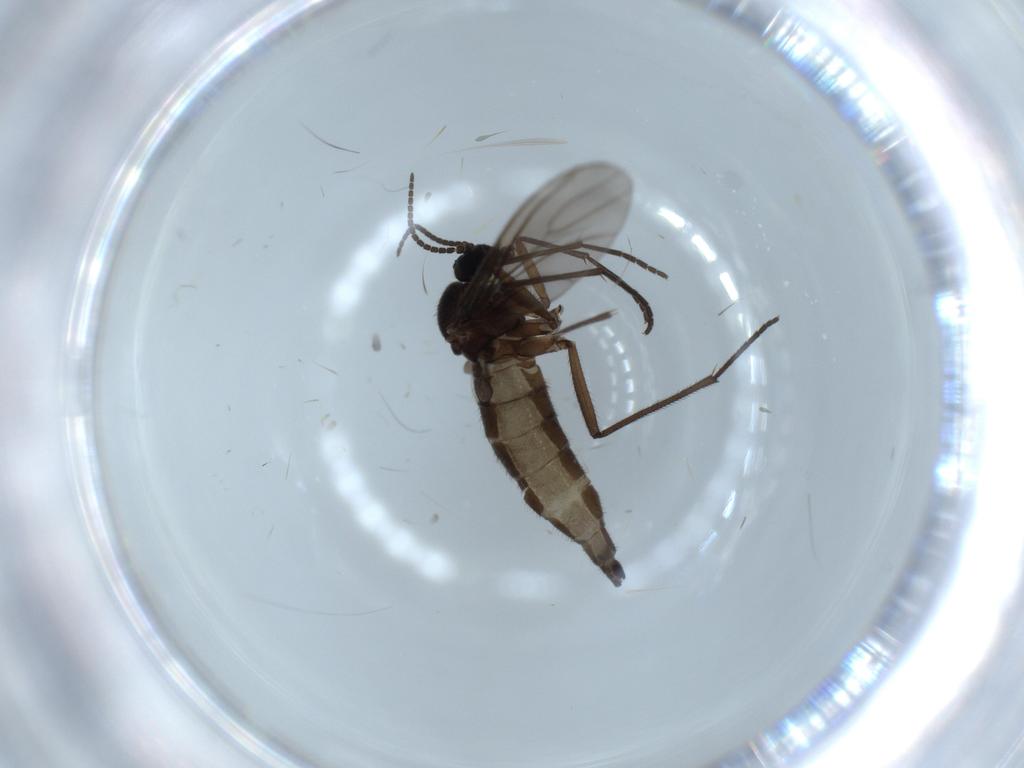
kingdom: Animalia
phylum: Arthropoda
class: Insecta
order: Diptera
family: Sciaridae
